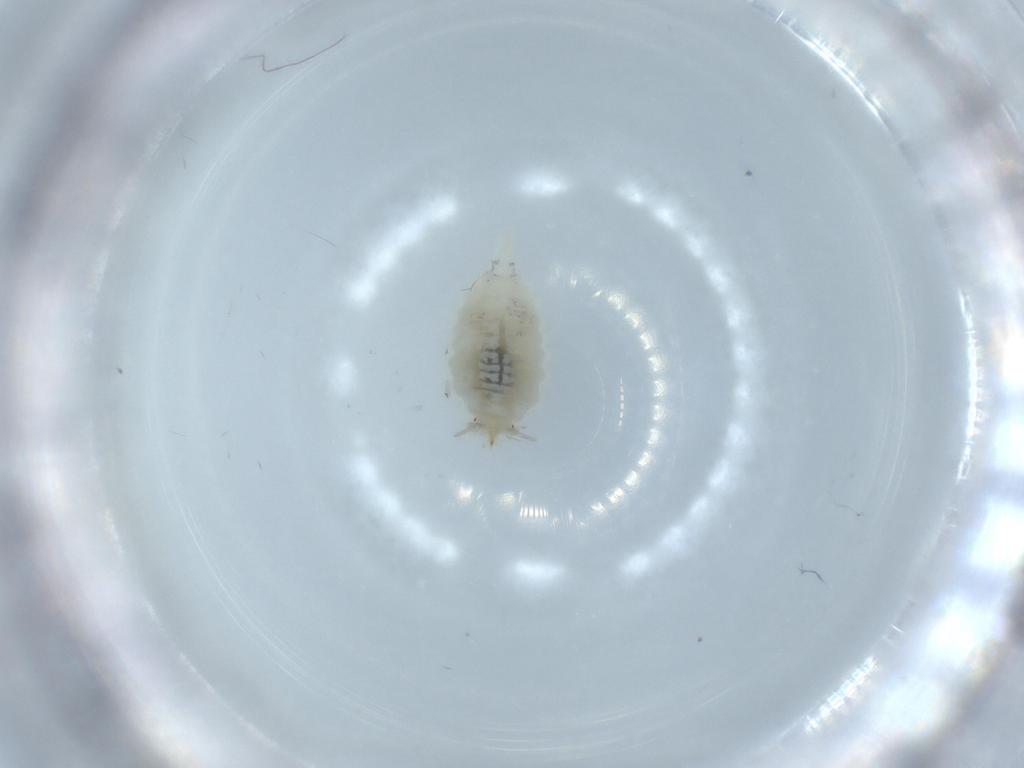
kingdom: Animalia
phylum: Arthropoda
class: Insecta
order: Neuroptera
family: Coniopterygidae
